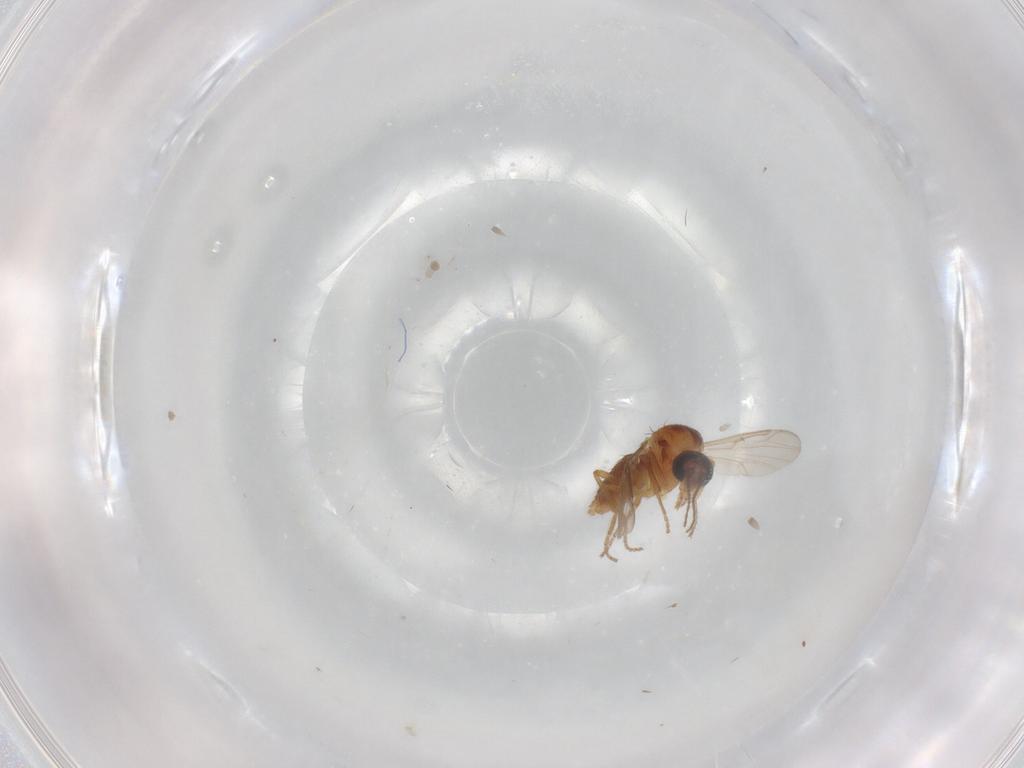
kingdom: Animalia
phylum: Arthropoda
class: Insecta
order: Diptera
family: Ceratopogonidae
